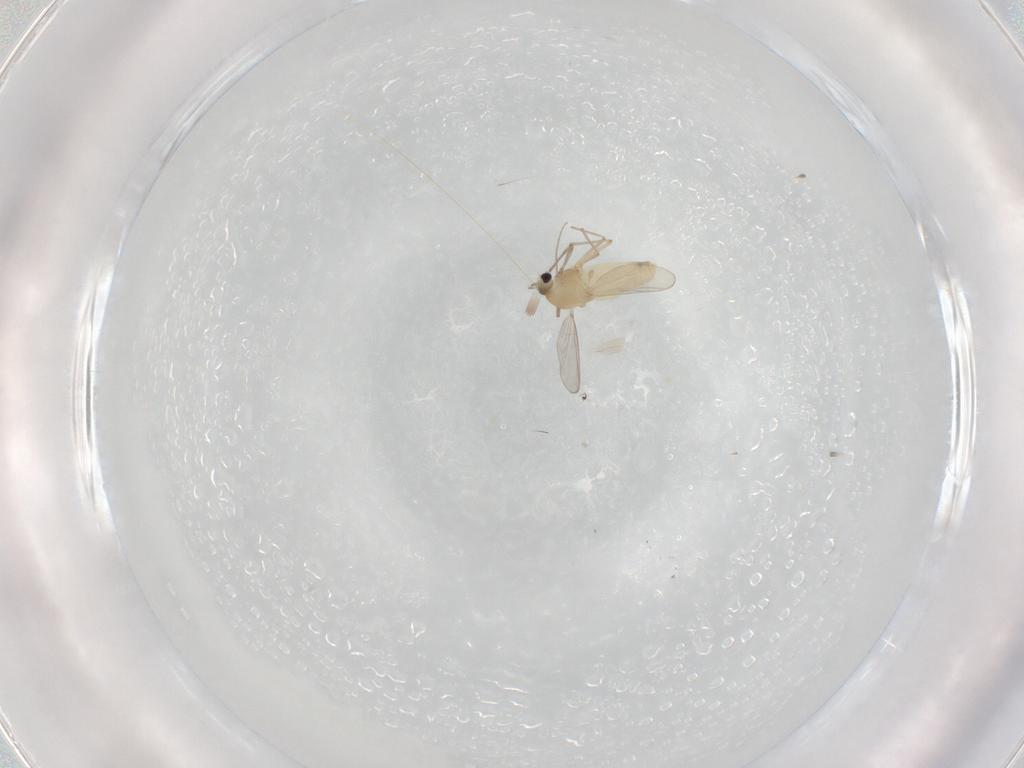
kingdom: Animalia
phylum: Arthropoda
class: Insecta
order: Diptera
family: Chironomidae
